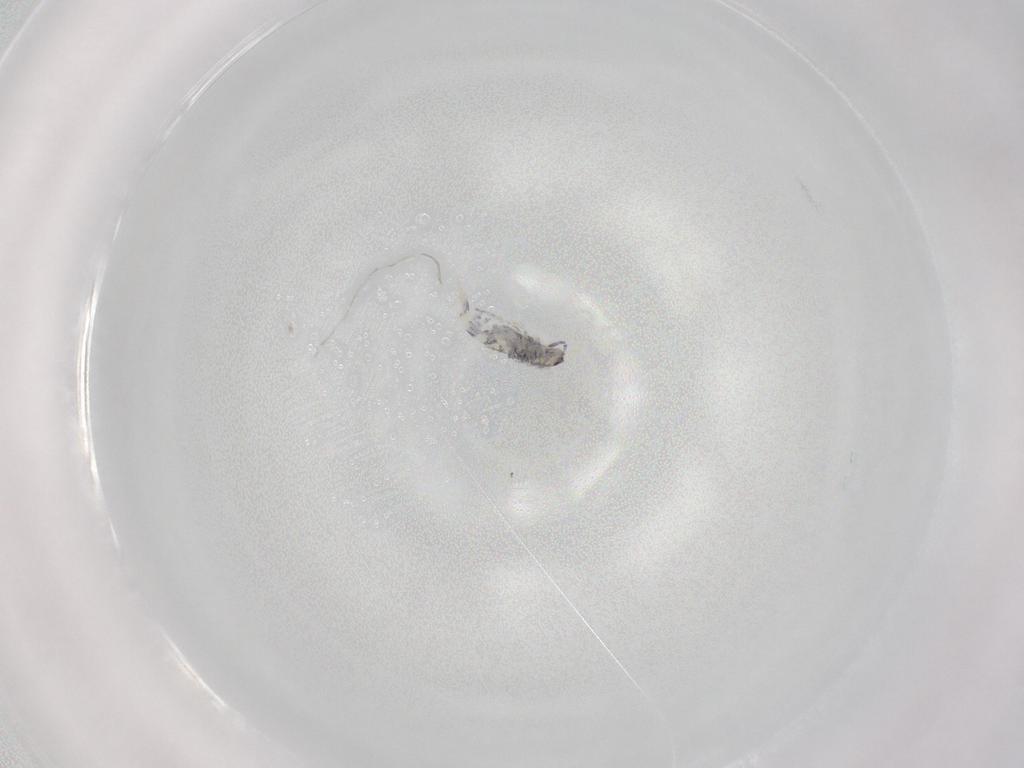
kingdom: Animalia
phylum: Arthropoda
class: Collembola
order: Entomobryomorpha
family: Entomobryidae
